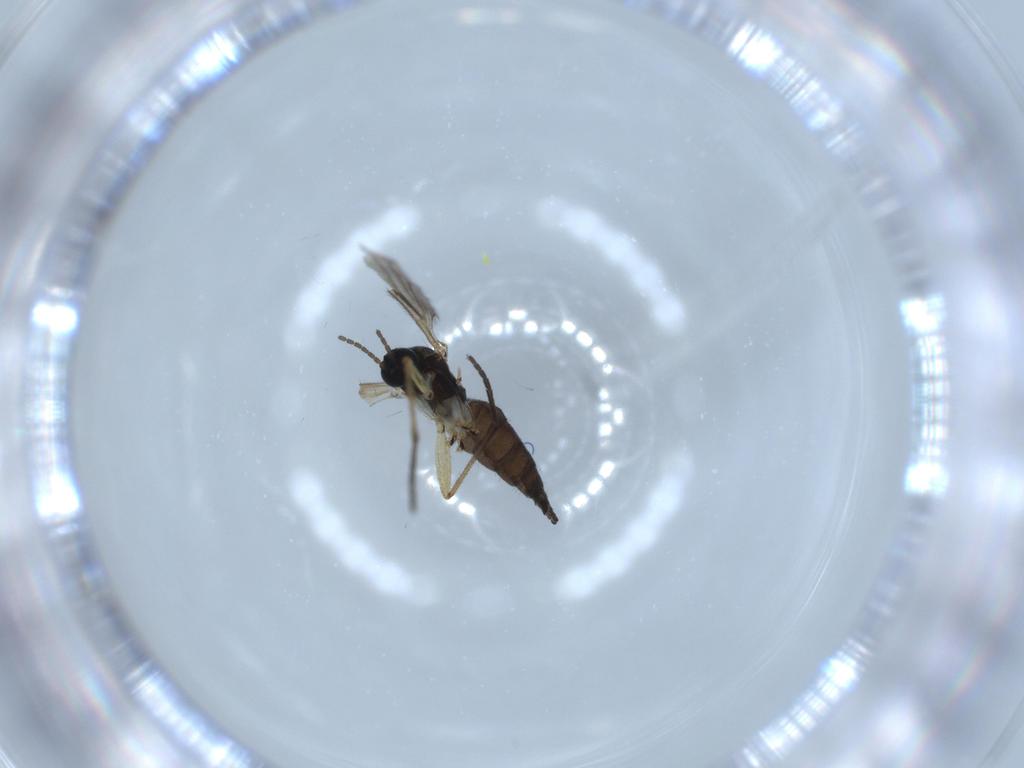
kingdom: Animalia
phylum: Arthropoda
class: Insecta
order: Diptera
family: Sciaridae
